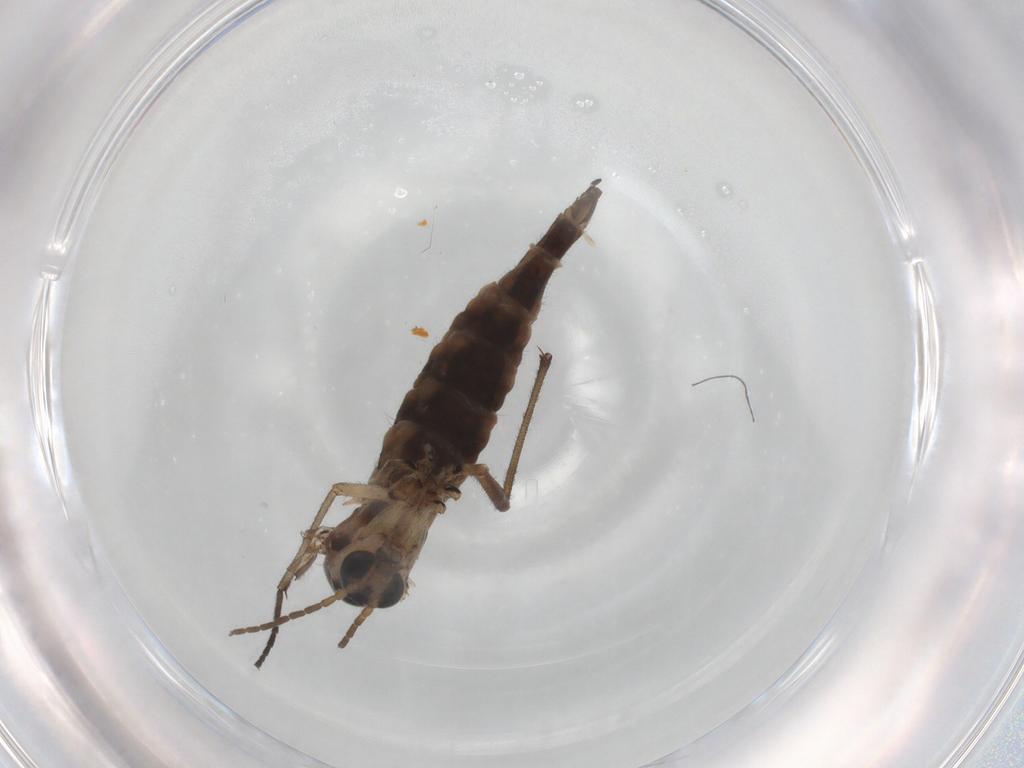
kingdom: Animalia
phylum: Arthropoda
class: Insecta
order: Diptera
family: Sciaridae
